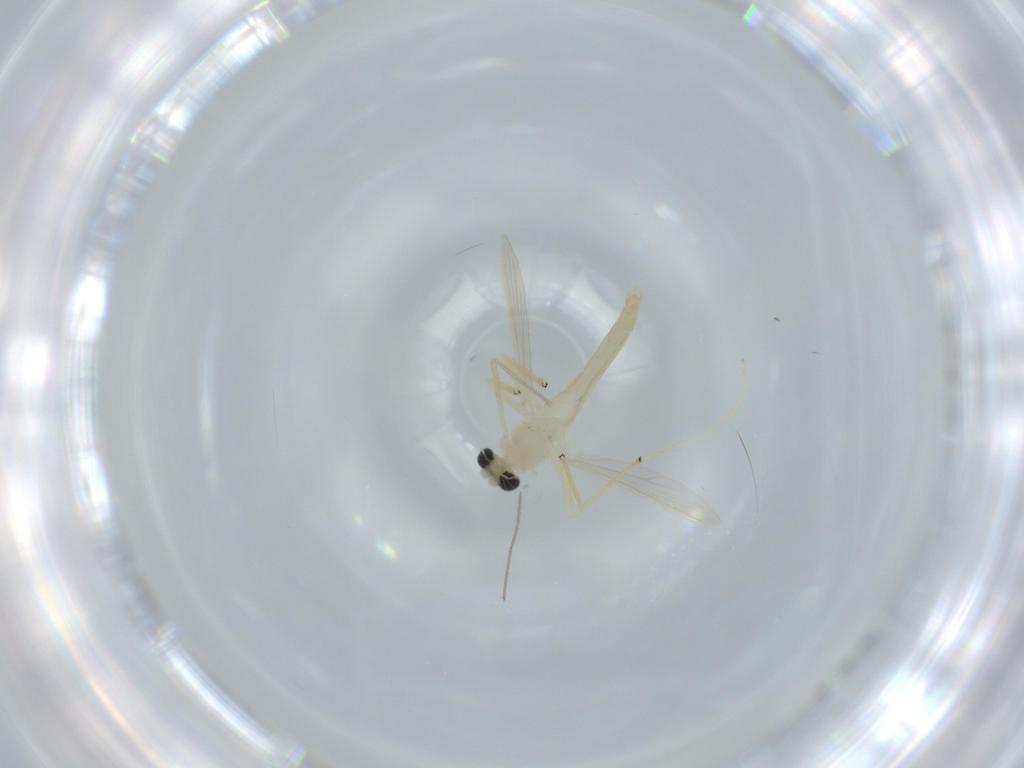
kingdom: Animalia
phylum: Arthropoda
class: Insecta
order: Diptera
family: Chironomidae
